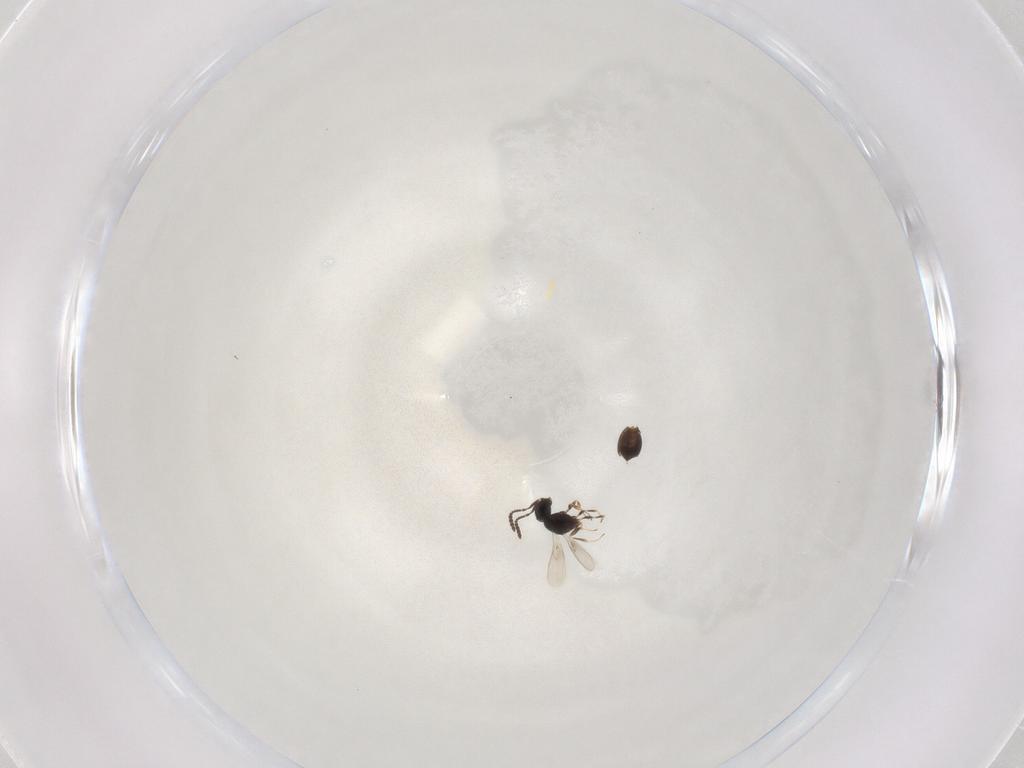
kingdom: Animalia
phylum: Arthropoda
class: Insecta
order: Hymenoptera
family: Scelionidae
